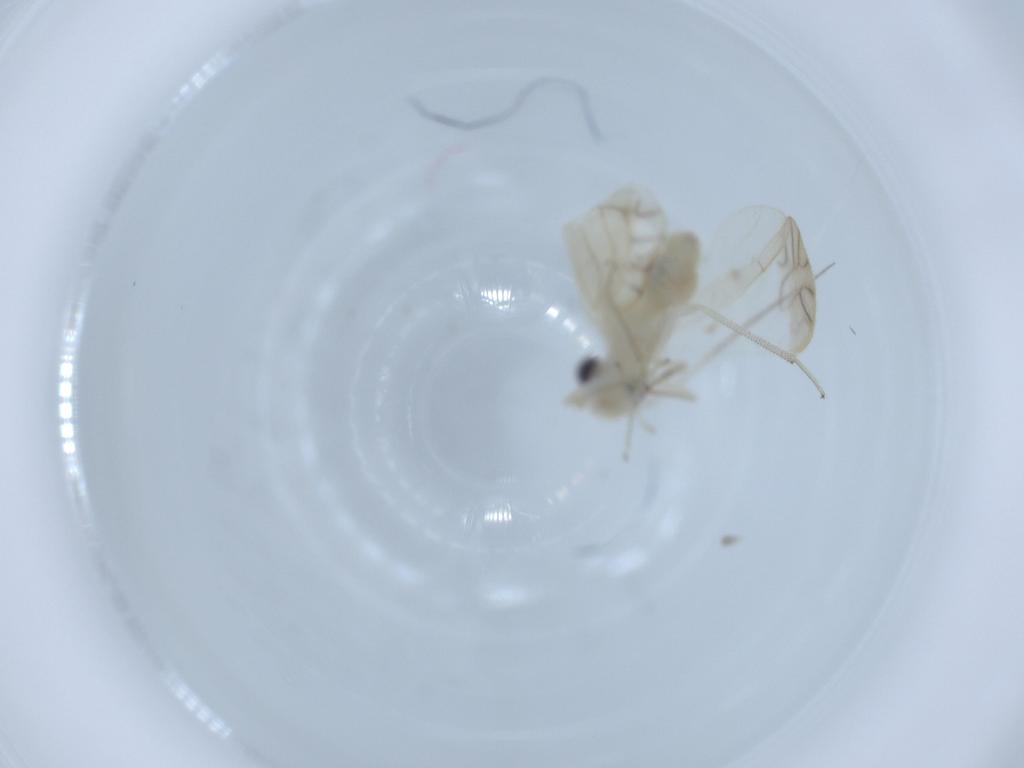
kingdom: Animalia
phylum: Arthropoda
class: Insecta
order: Psocodea
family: Caeciliusidae
